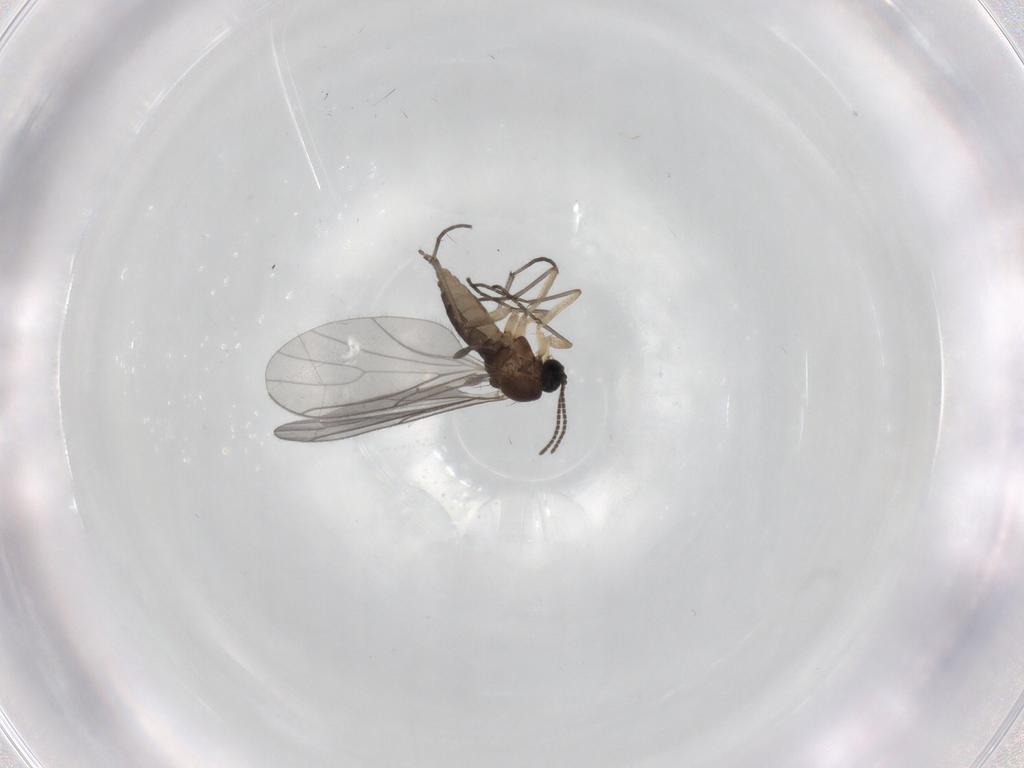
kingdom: Animalia
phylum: Arthropoda
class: Insecta
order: Diptera
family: Sciaridae
